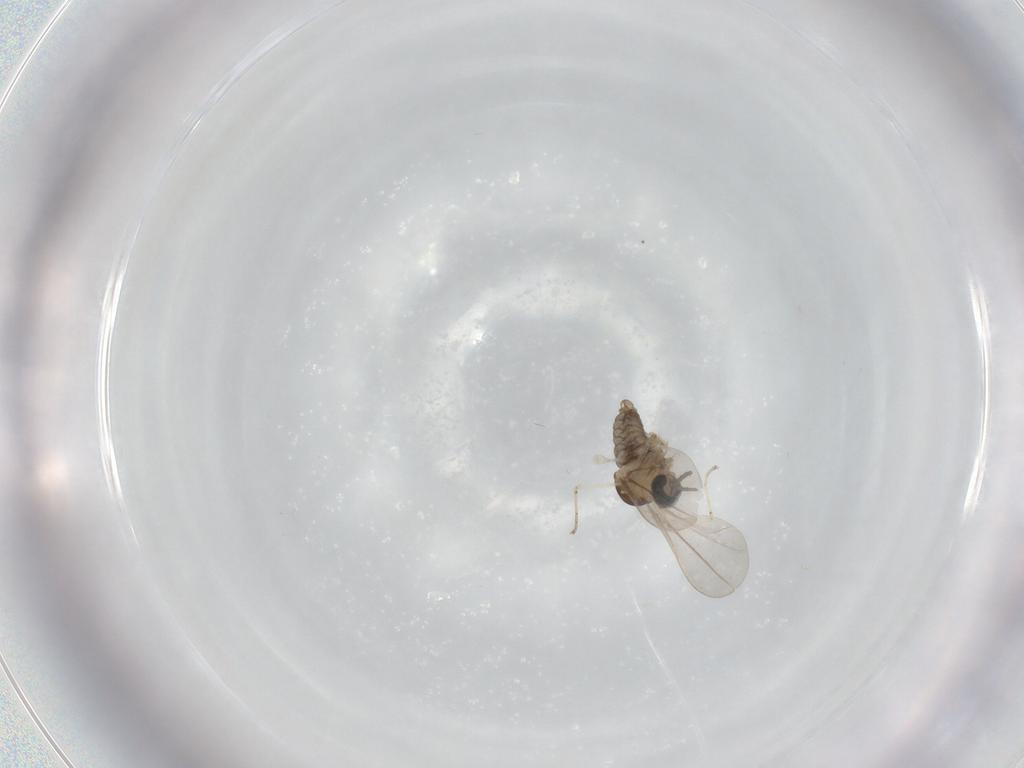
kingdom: Animalia
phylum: Arthropoda
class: Insecta
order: Diptera
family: Cecidomyiidae
